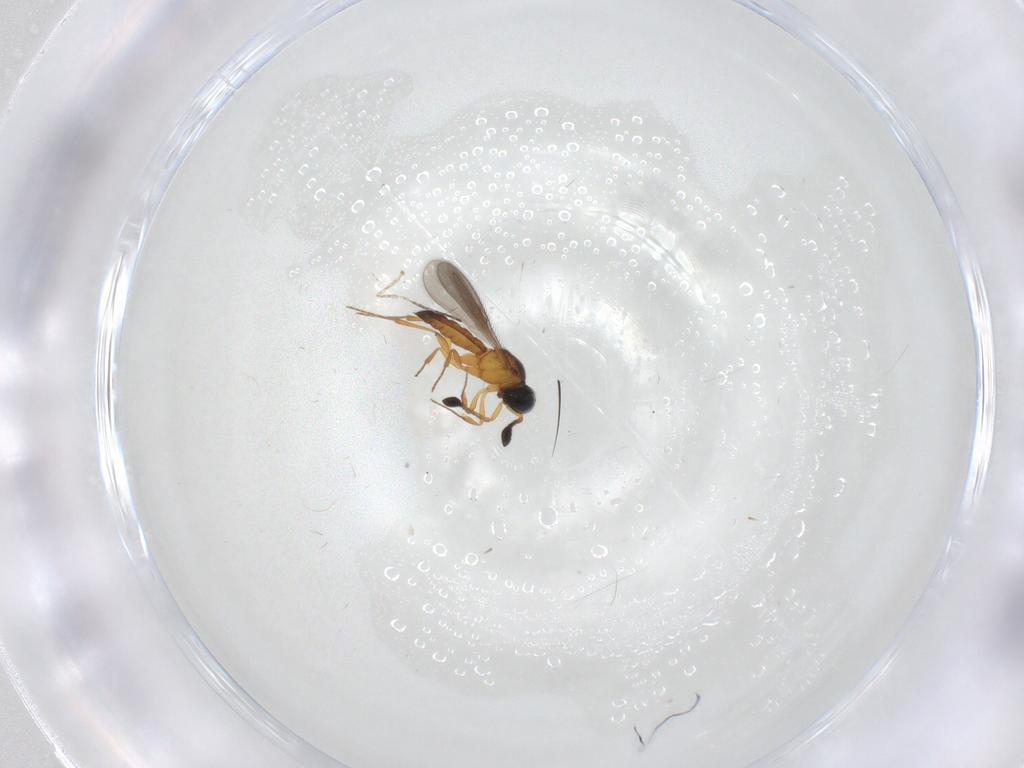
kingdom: Animalia
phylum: Arthropoda
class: Insecta
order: Hymenoptera
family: Scelionidae
